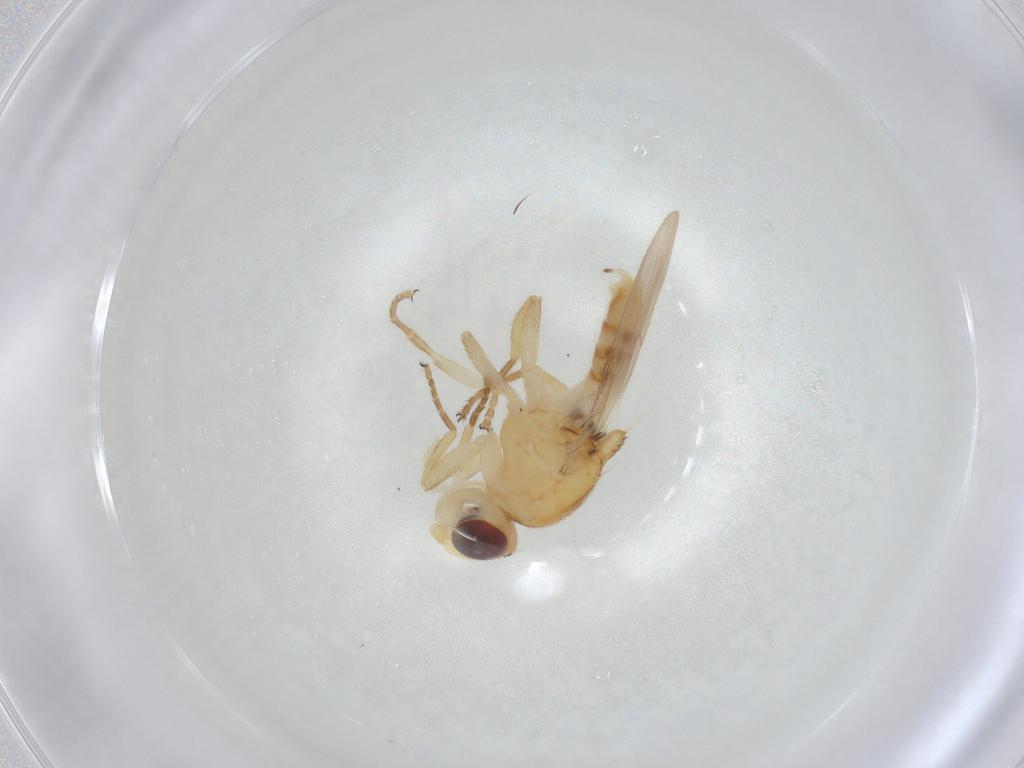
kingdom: Animalia
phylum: Arthropoda
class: Insecta
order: Diptera
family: Chloropidae
